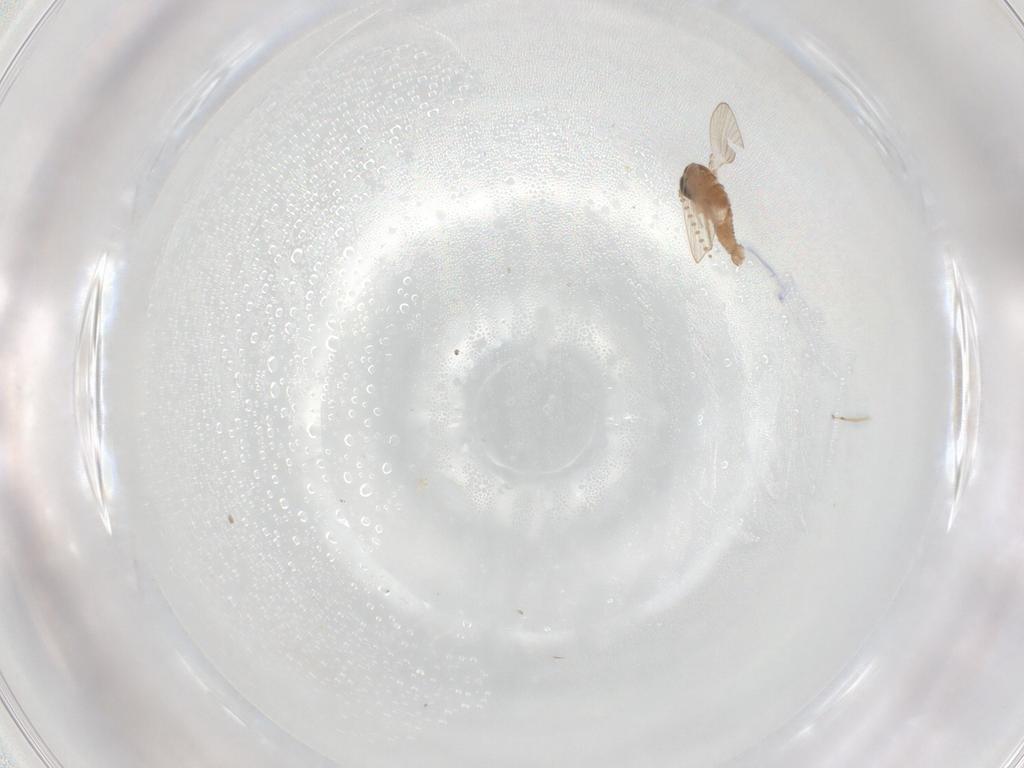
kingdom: Animalia
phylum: Arthropoda
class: Insecta
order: Diptera
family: Psychodidae
